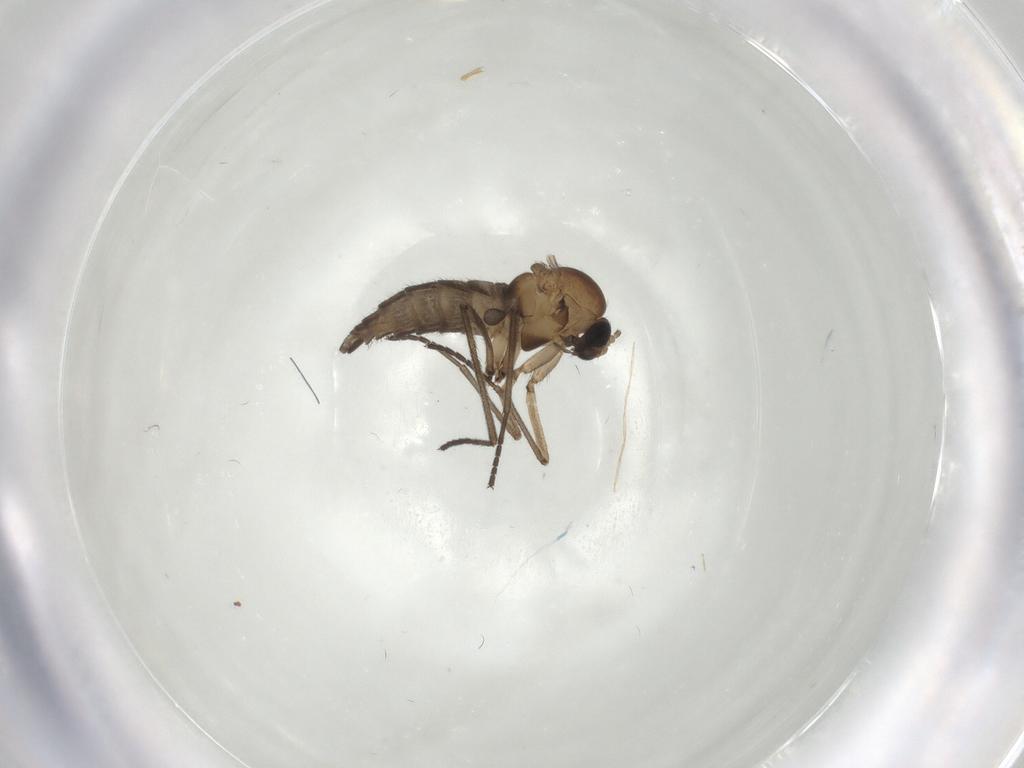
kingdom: Animalia
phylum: Arthropoda
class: Insecta
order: Diptera
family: Sciaridae
